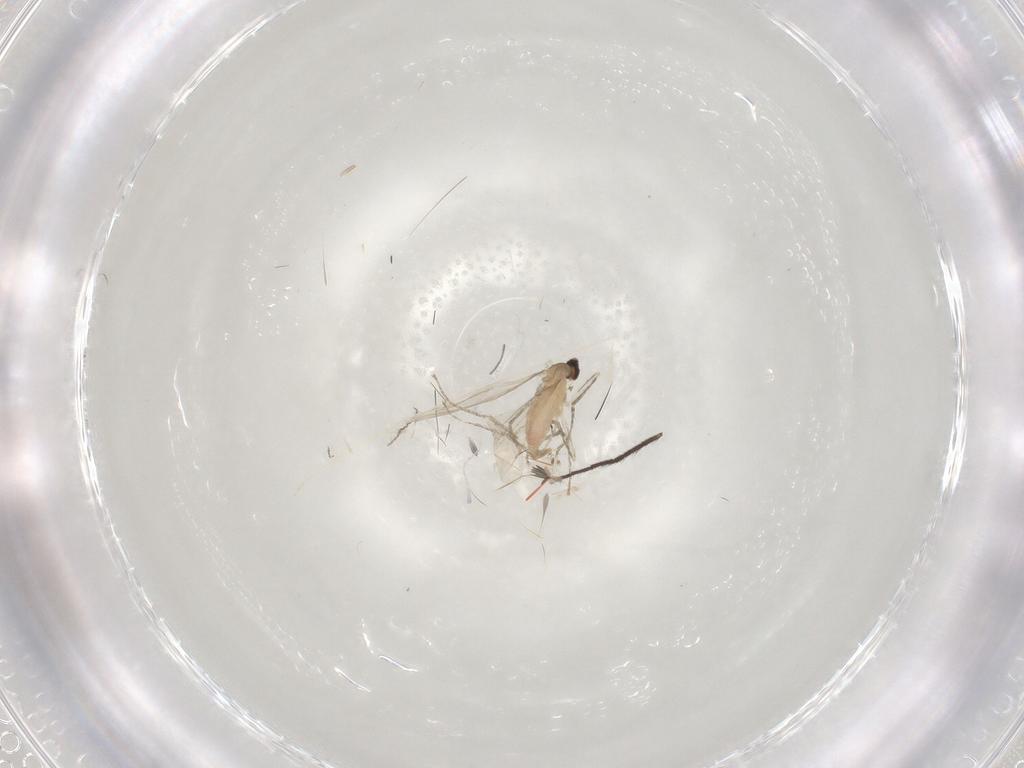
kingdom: Animalia
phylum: Arthropoda
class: Insecta
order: Diptera
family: Cecidomyiidae
